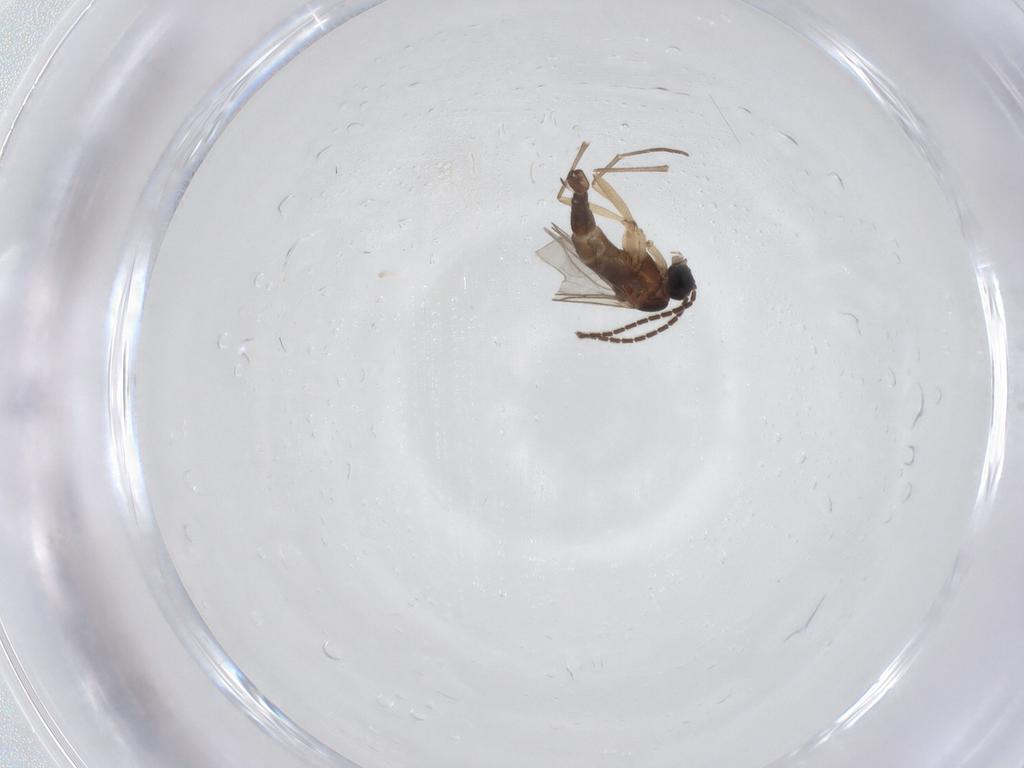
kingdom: Animalia
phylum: Arthropoda
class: Insecta
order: Diptera
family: Sciaridae
